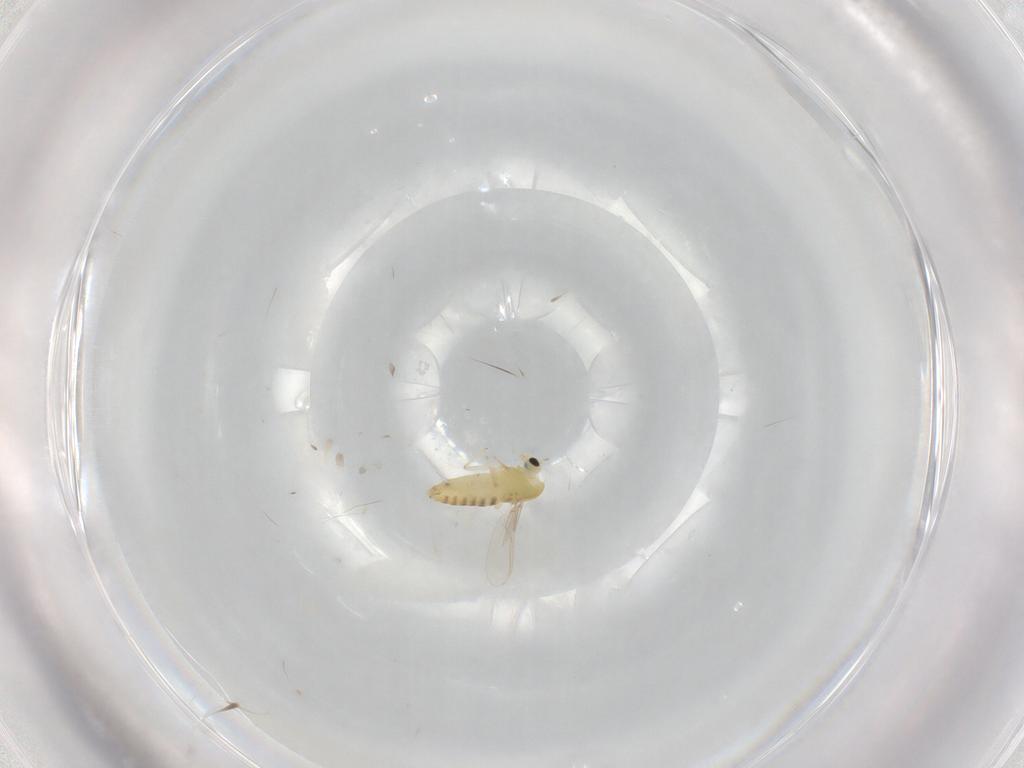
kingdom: Animalia
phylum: Arthropoda
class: Insecta
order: Diptera
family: Chironomidae
